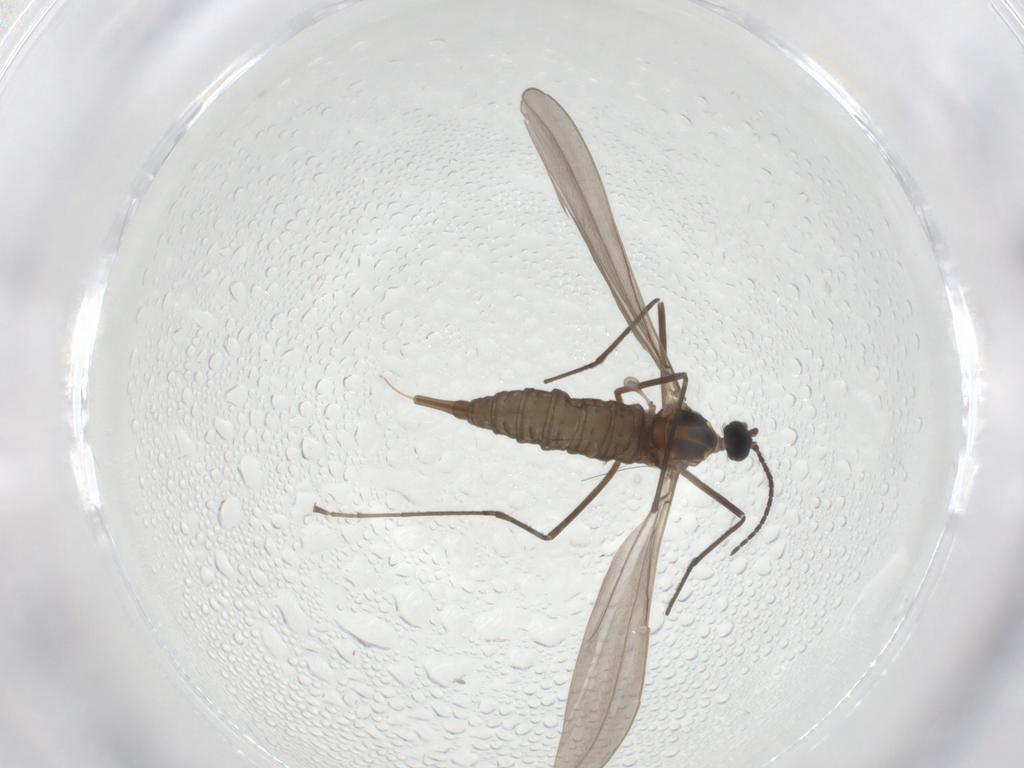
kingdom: Animalia
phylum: Arthropoda
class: Insecta
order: Diptera
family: Cecidomyiidae
